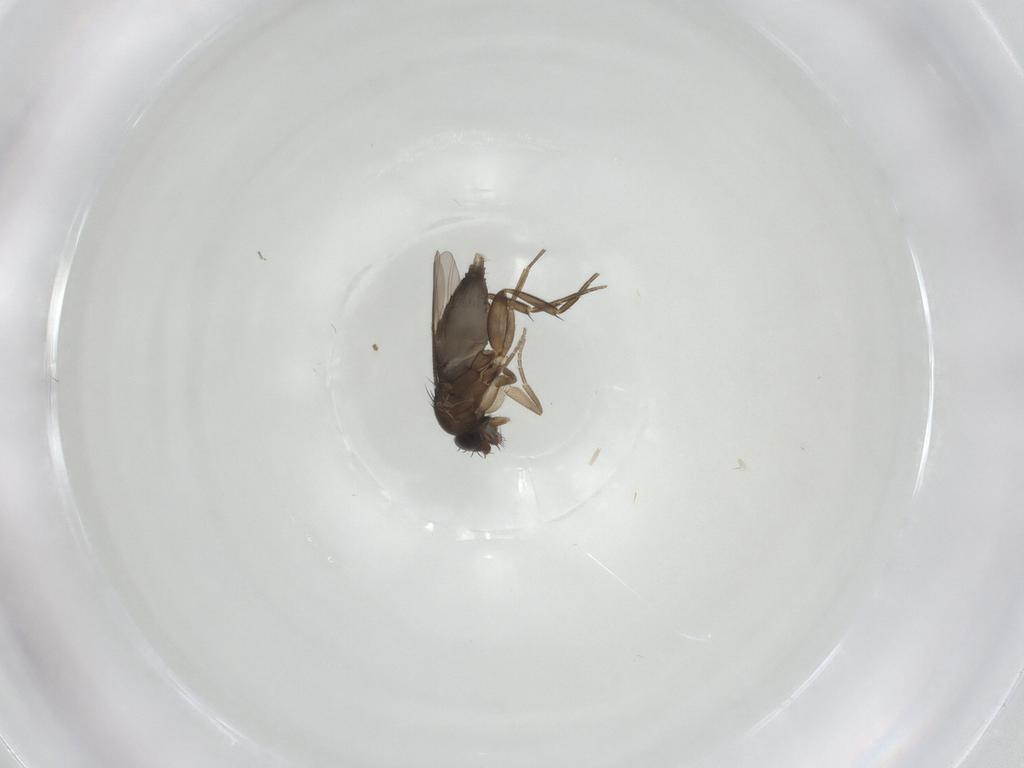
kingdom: Animalia
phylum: Arthropoda
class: Insecta
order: Diptera
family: Phoridae
